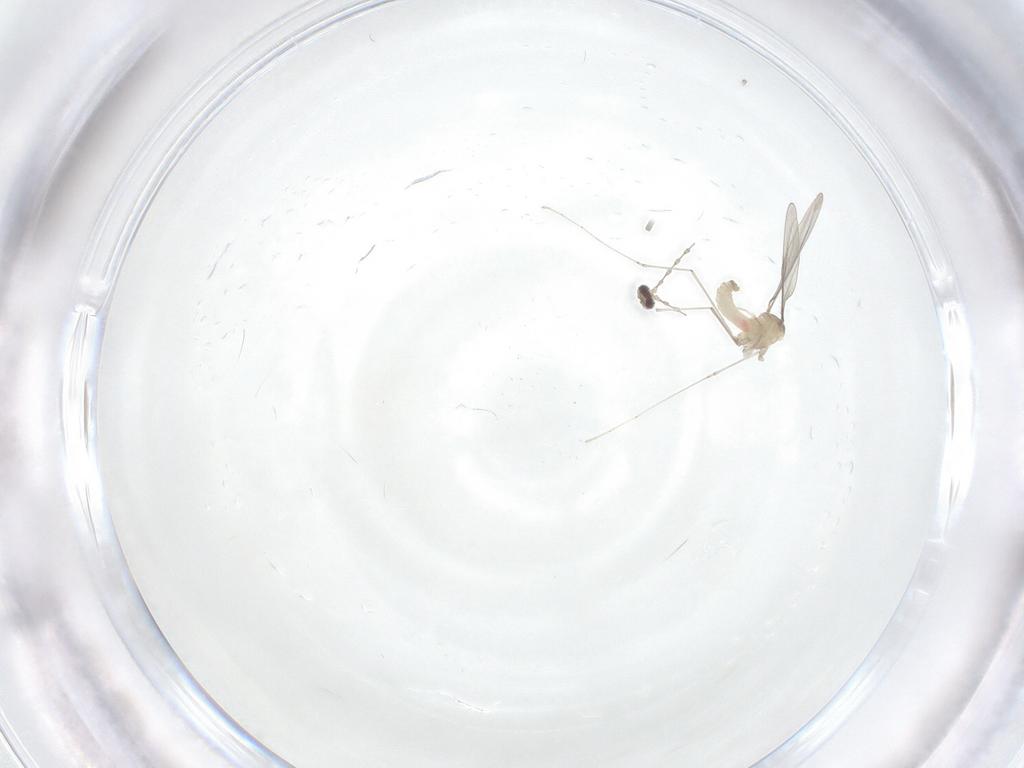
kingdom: Animalia
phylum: Arthropoda
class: Insecta
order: Diptera
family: Cecidomyiidae
